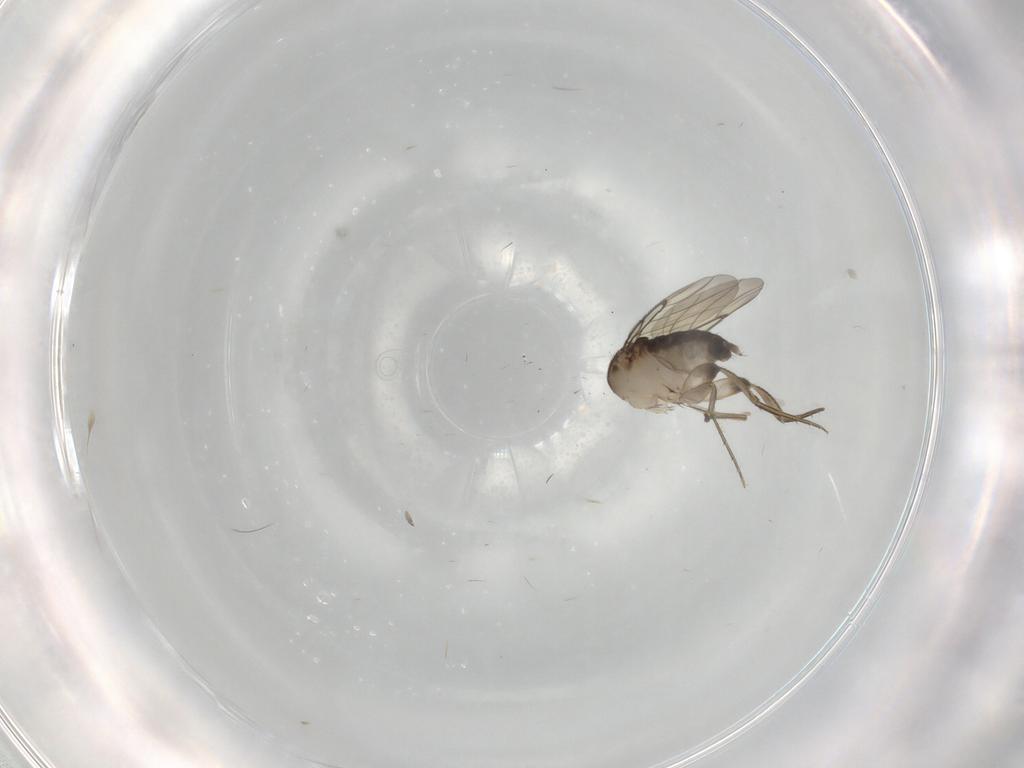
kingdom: Animalia
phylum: Arthropoda
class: Insecta
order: Diptera
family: Phoridae
